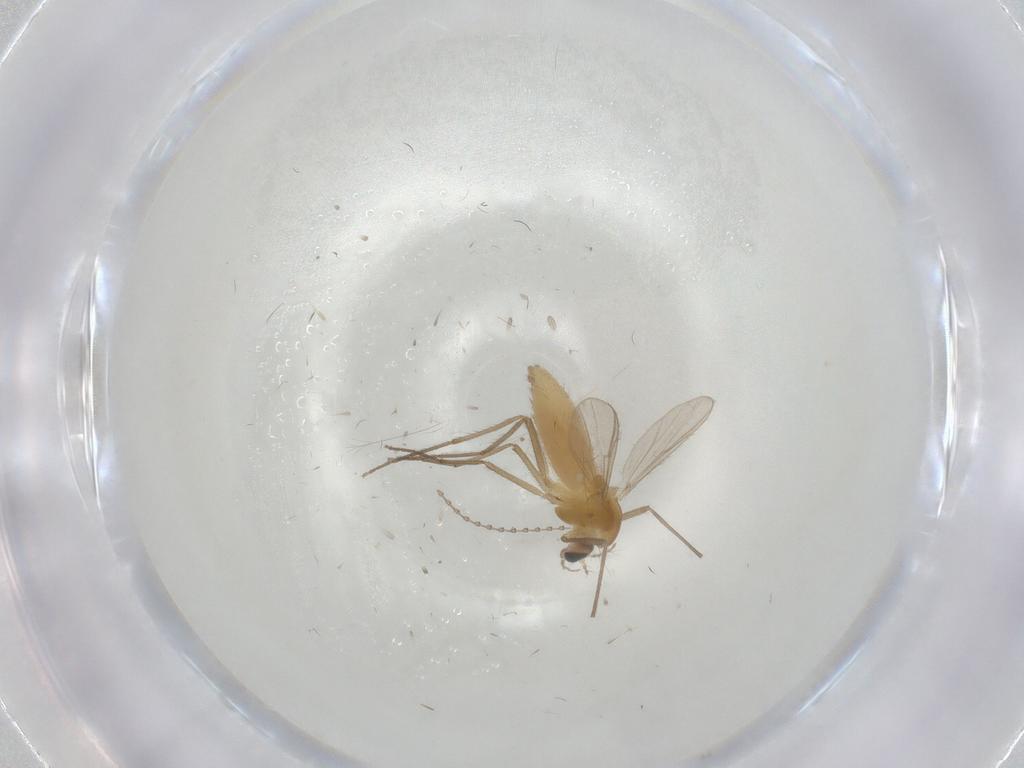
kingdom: Animalia
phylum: Arthropoda
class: Insecta
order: Diptera
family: Chironomidae
